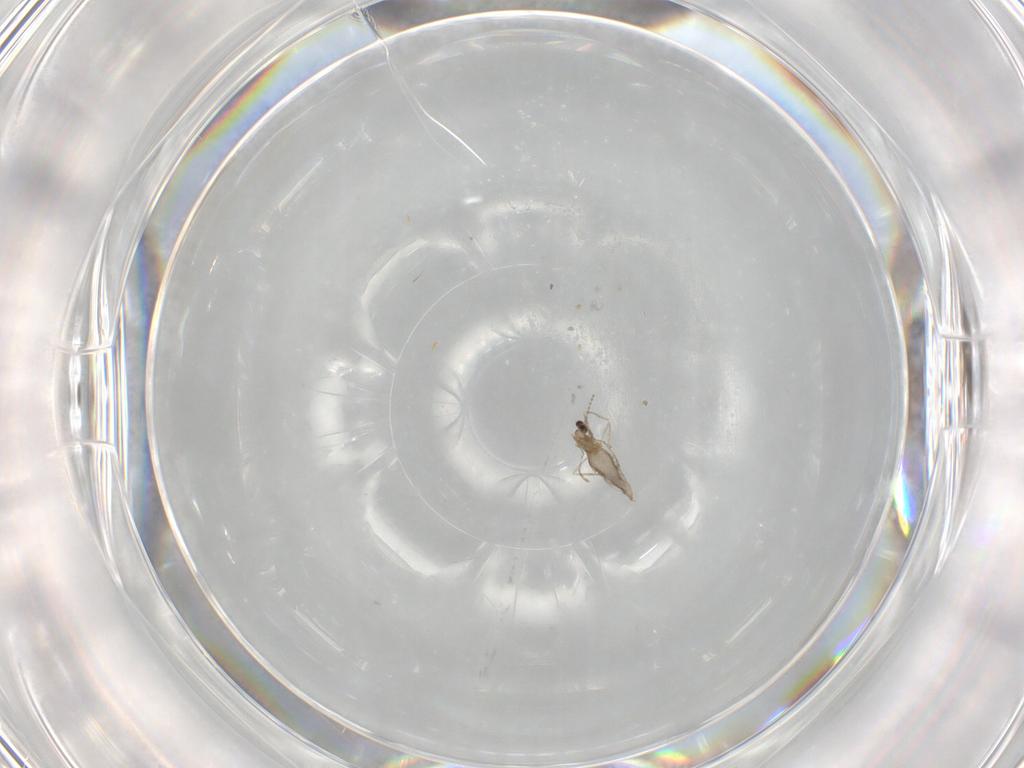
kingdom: Animalia
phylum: Arthropoda
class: Insecta
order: Diptera
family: Cecidomyiidae
